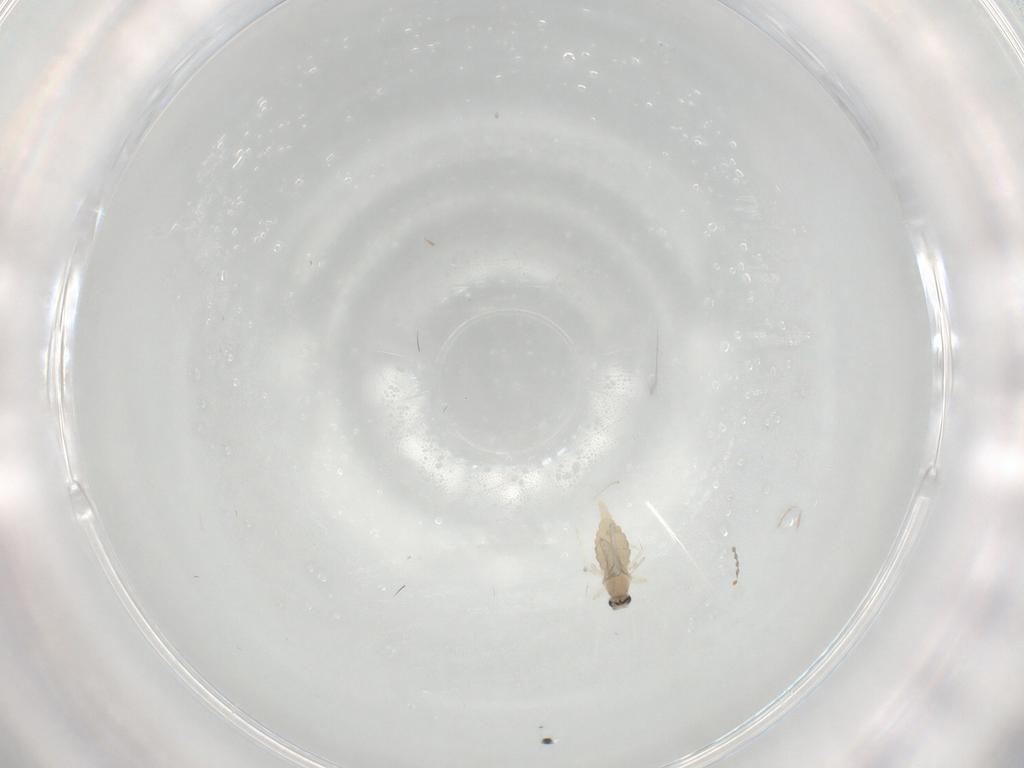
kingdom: Animalia
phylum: Arthropoda
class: Insecta
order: Diptera
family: Cecidomyiidae
